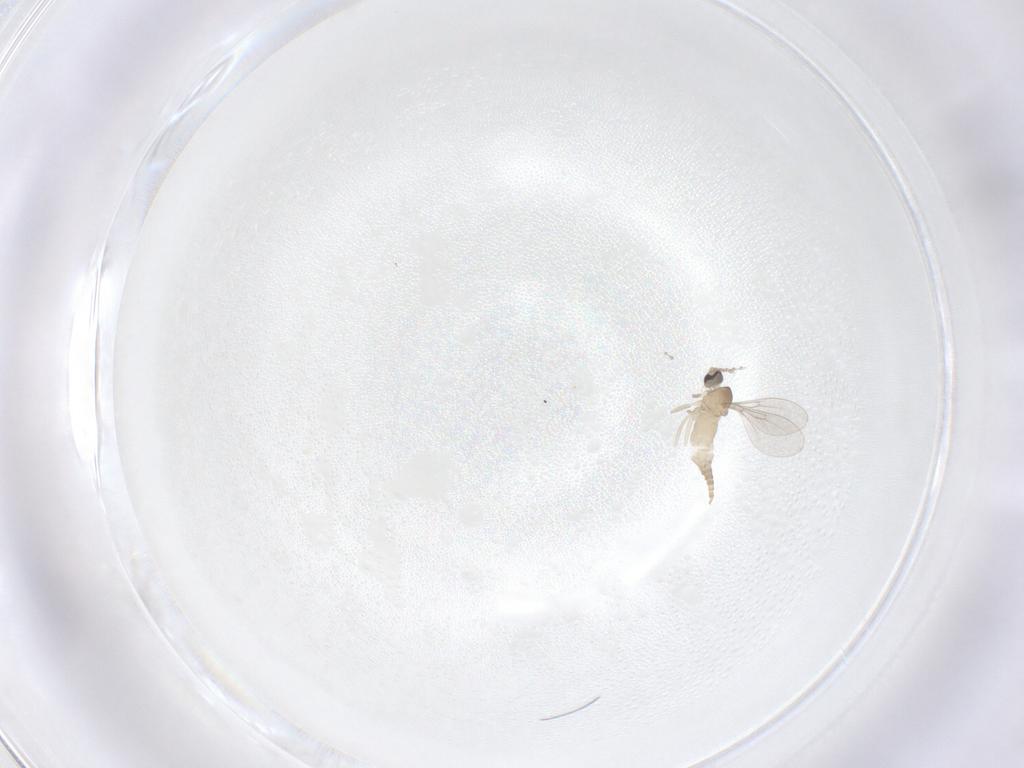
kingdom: Animalia
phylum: Arthropoda
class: Insecta
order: Diptera
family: Cecidomyiidae
